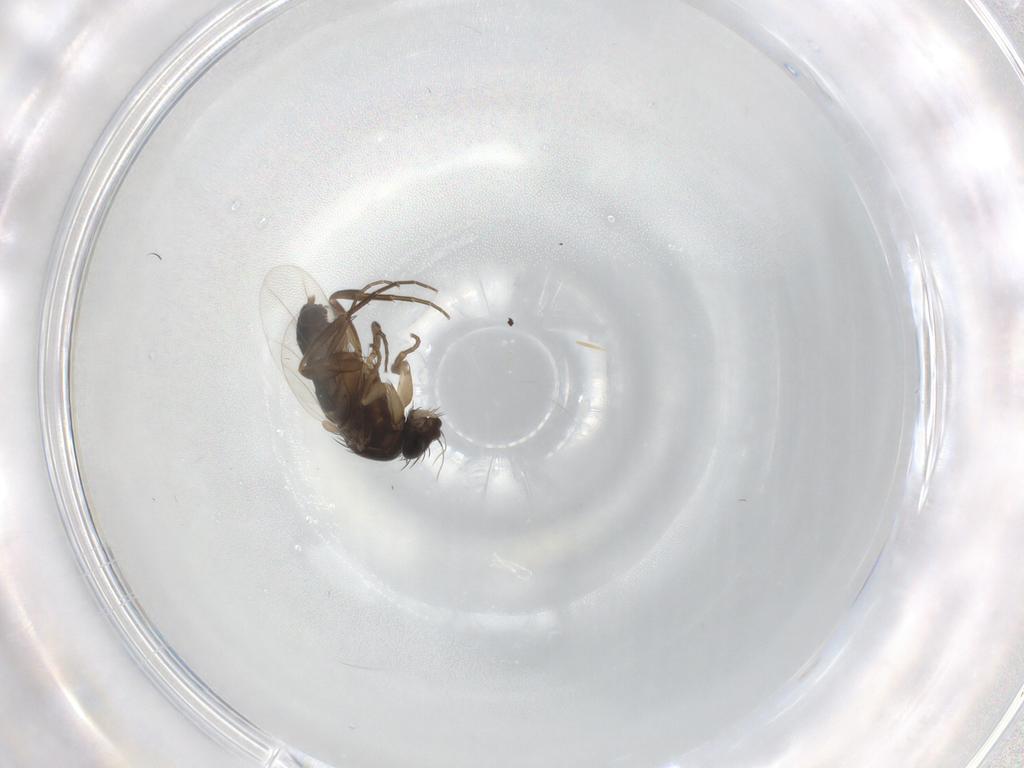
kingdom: Animalia
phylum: Arthropoda
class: Insecta
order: Diptera
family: Phoridae
